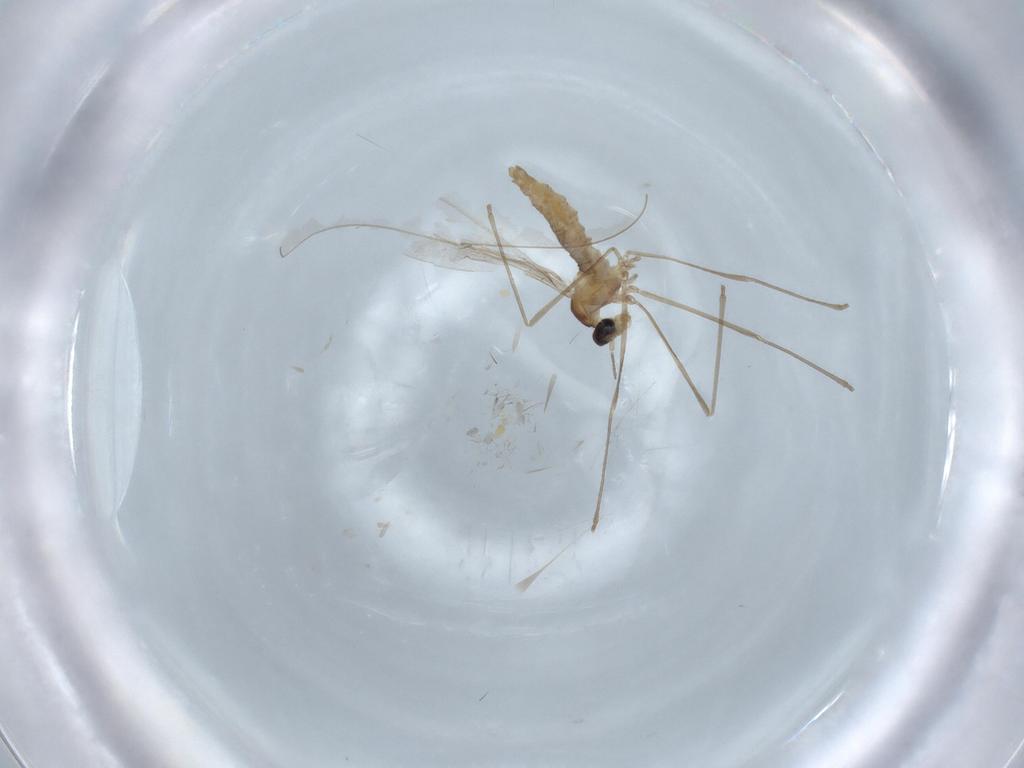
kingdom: Animalia
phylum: Arthropoda
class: Insecta
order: Diptera
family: Cecidomyiidae
